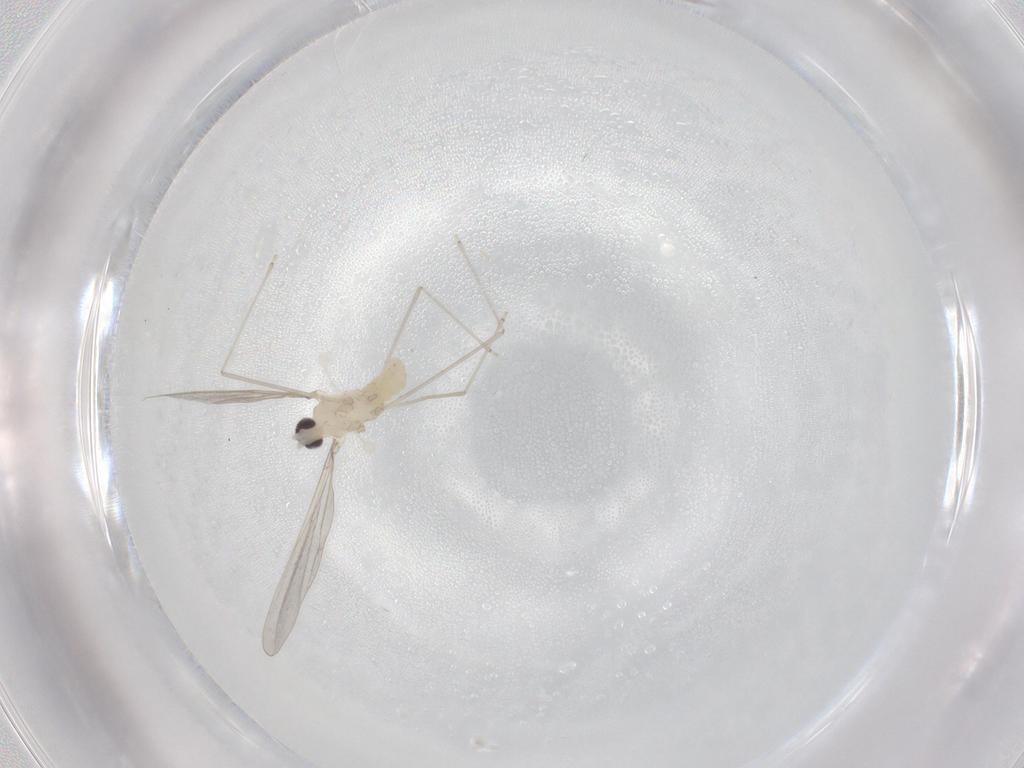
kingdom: Animalia
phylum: Arthropoda
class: Insecta
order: Diptera
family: Cecidomyiidae
